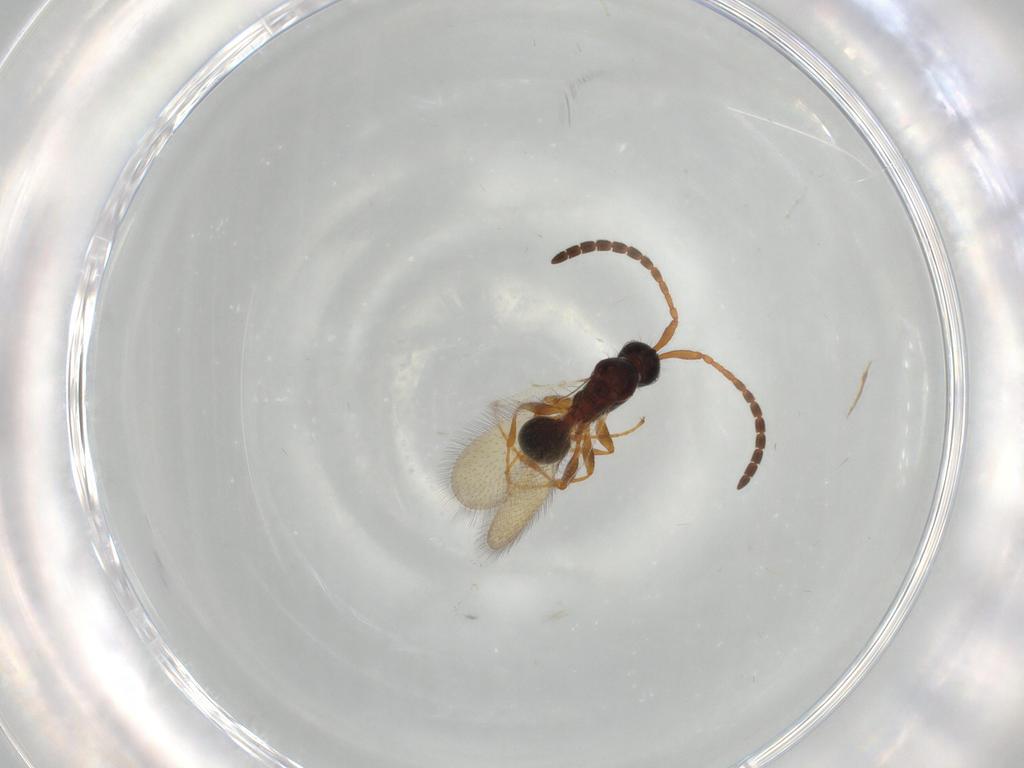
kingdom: Animalia
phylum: Arthropoda
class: Insecta
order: Hymenoptera
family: Diapriidae
